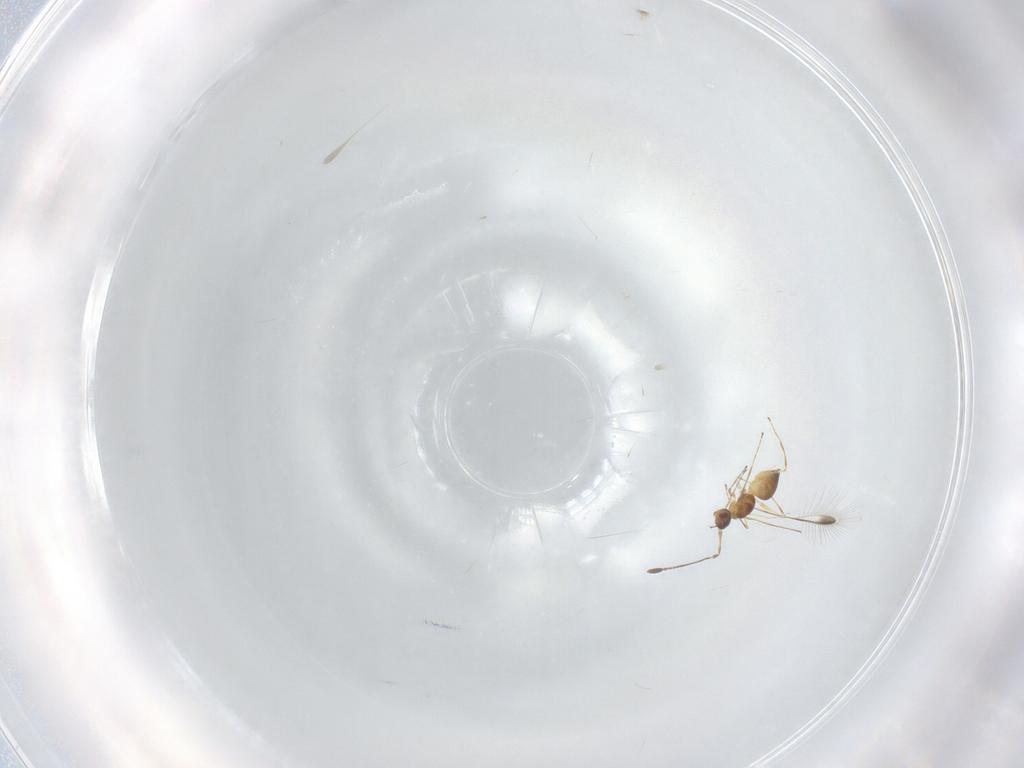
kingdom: Animalia
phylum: Arthropoda
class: Insecta
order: Hymenoptera
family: Mymaridae
